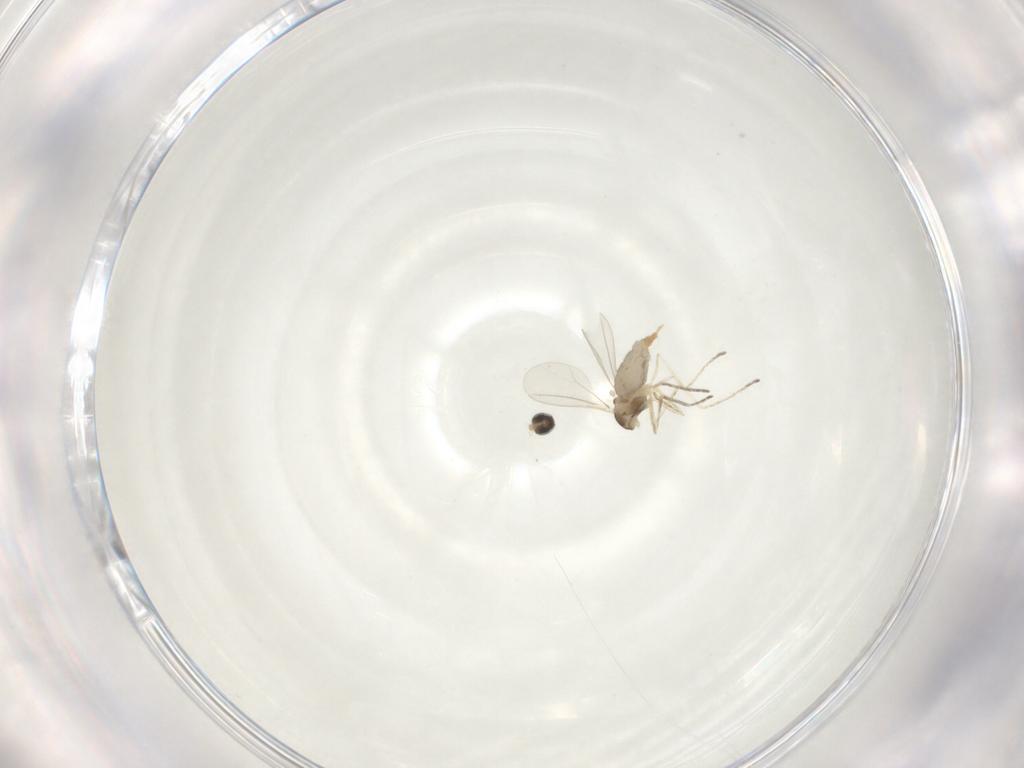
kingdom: Animalia
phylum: Arthropoda
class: Insecta
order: Diptera
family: Cecidomyiidae
